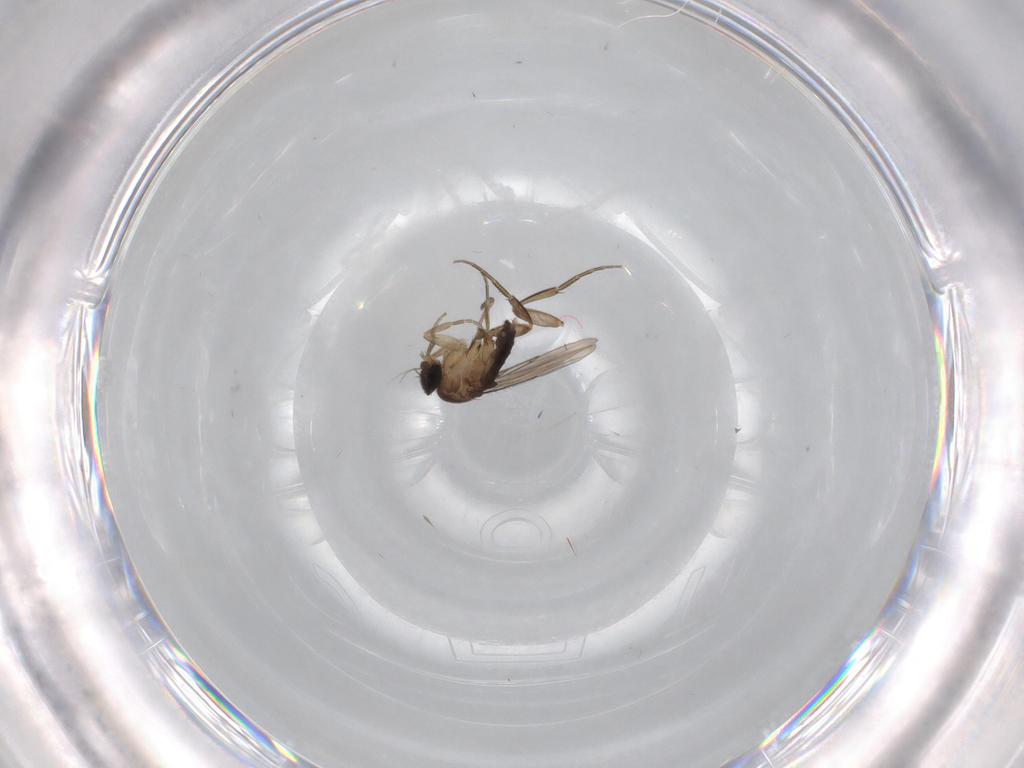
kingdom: Animalia
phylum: Arthropoda
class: Insecta
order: Diptera
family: Phoridae
